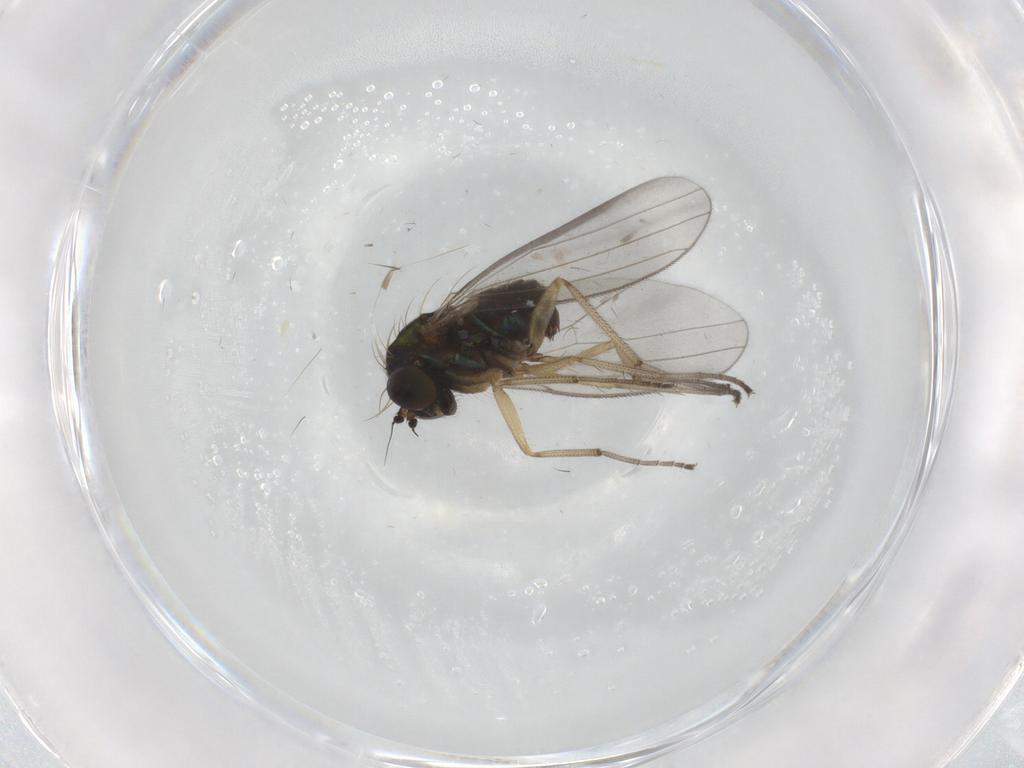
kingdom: Animalia
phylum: Arthropoda
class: Insecta
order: Diptera
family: Dolichopodidae
